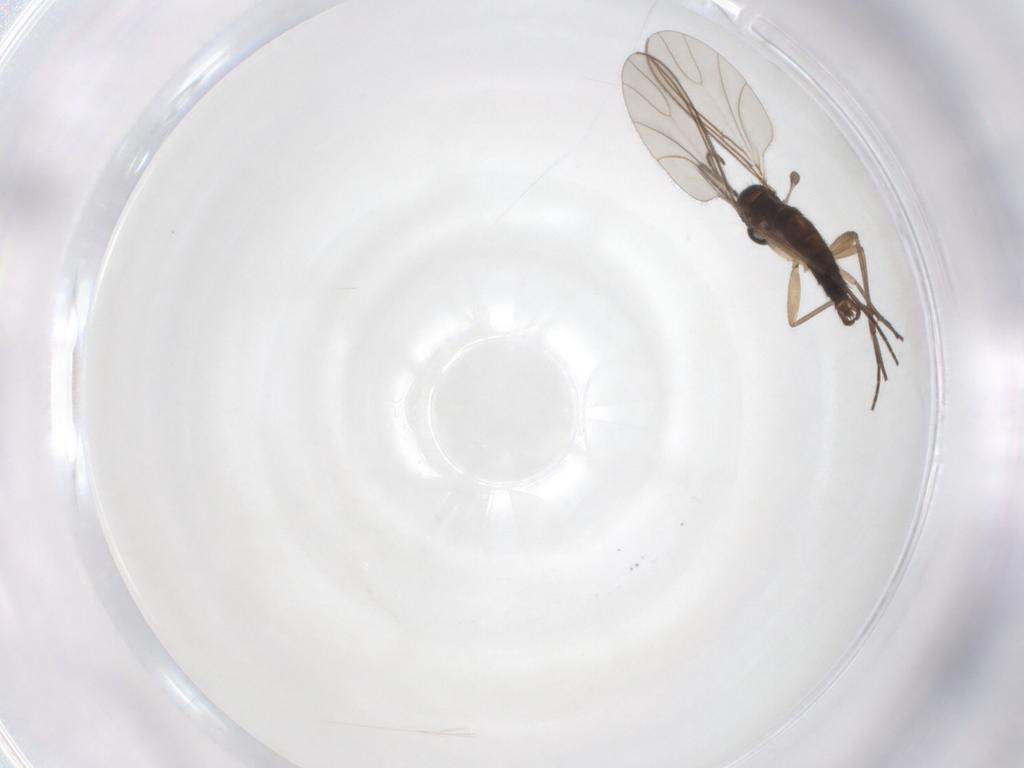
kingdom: Animalia
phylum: Arthropoda
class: Insecta
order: Diptera
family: Sciaridae
